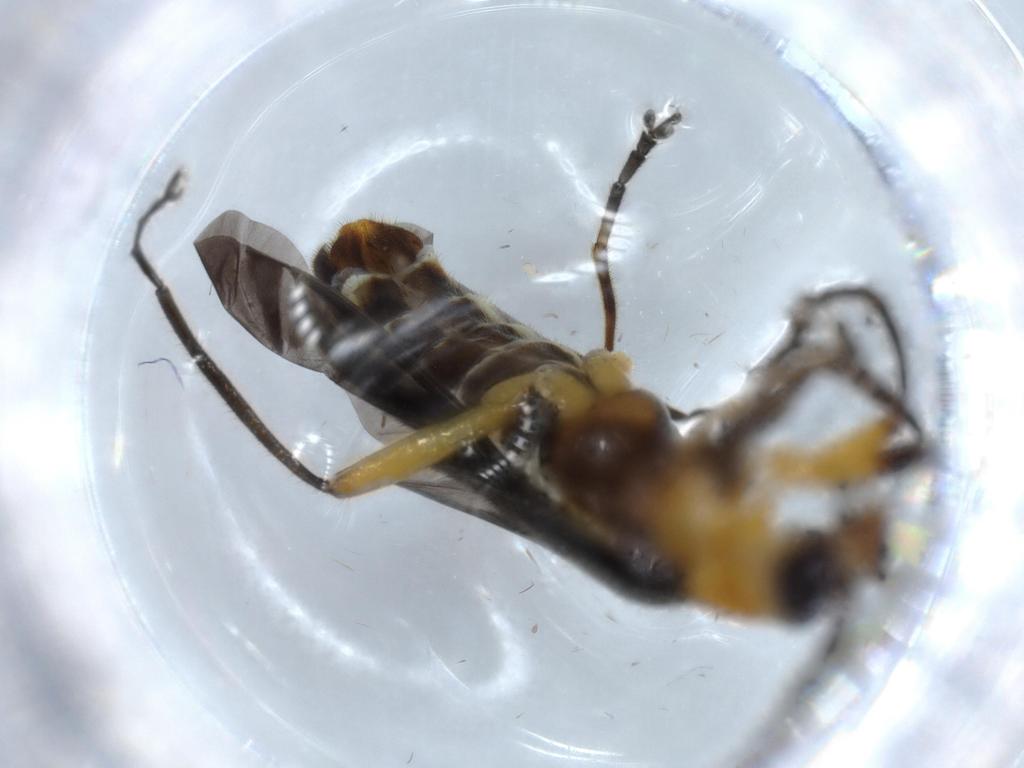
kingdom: Animalia
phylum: Arthropoda
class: Insecta
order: Coleoptera
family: Cantharidae
